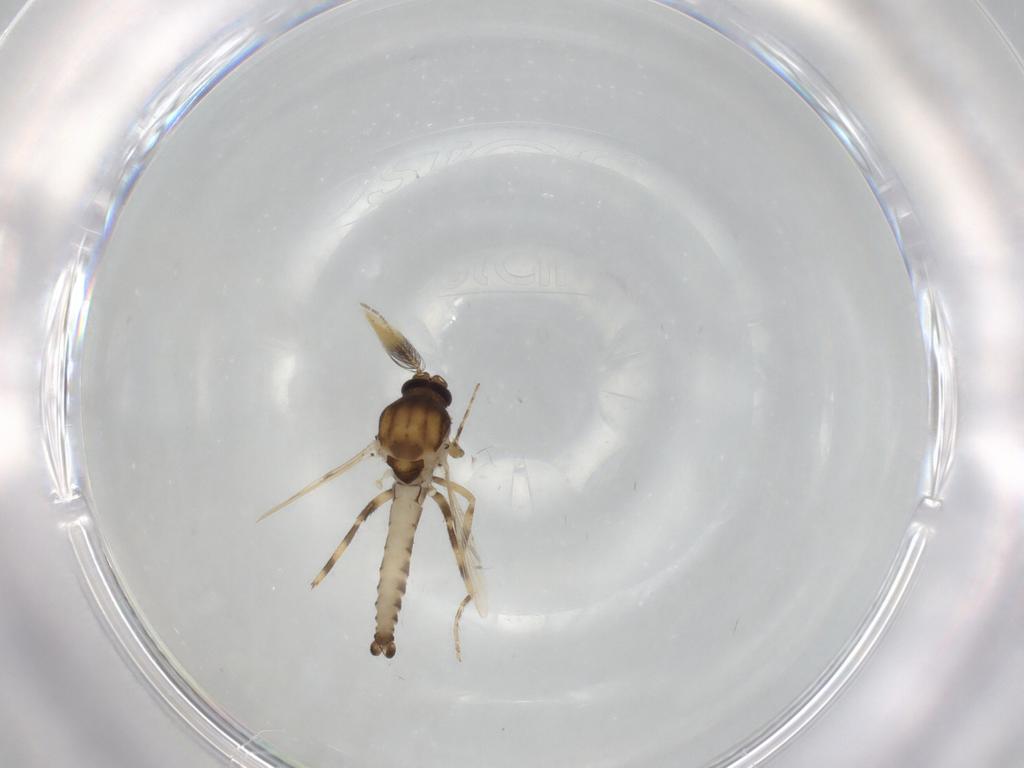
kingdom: Animalia
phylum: Arthropoda
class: Insecta
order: Diptera
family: Ceratopogonidae
